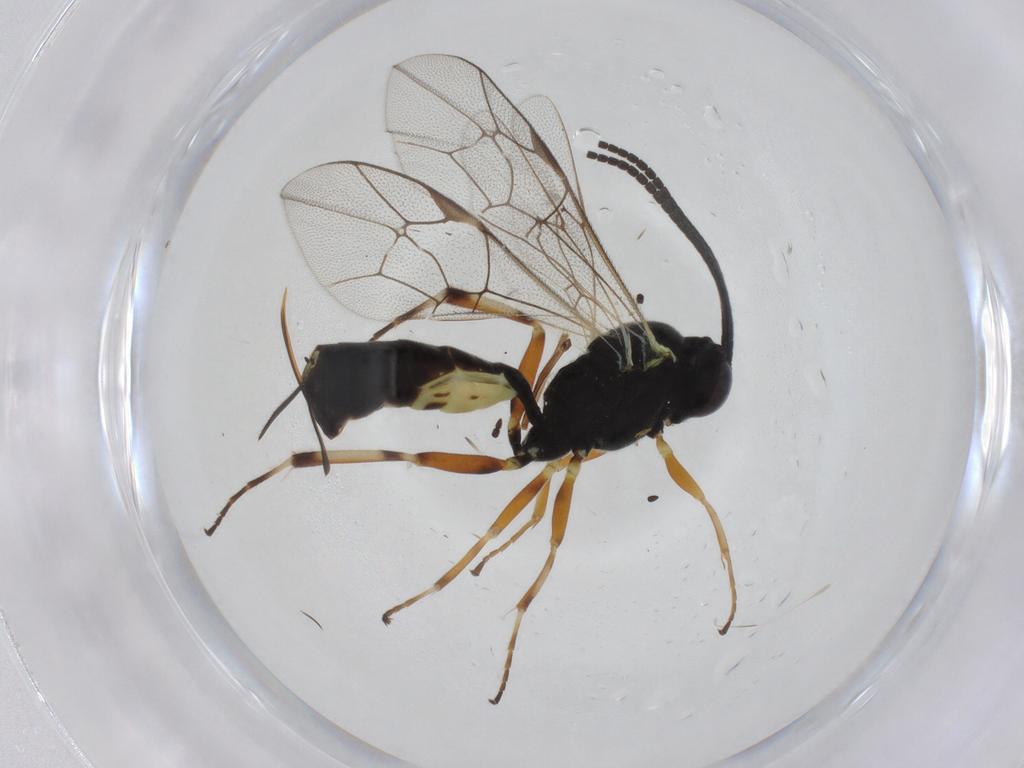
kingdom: Animalia
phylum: Arthropoda
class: Insecta
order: Hymenoptera
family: Ichneumonidae
